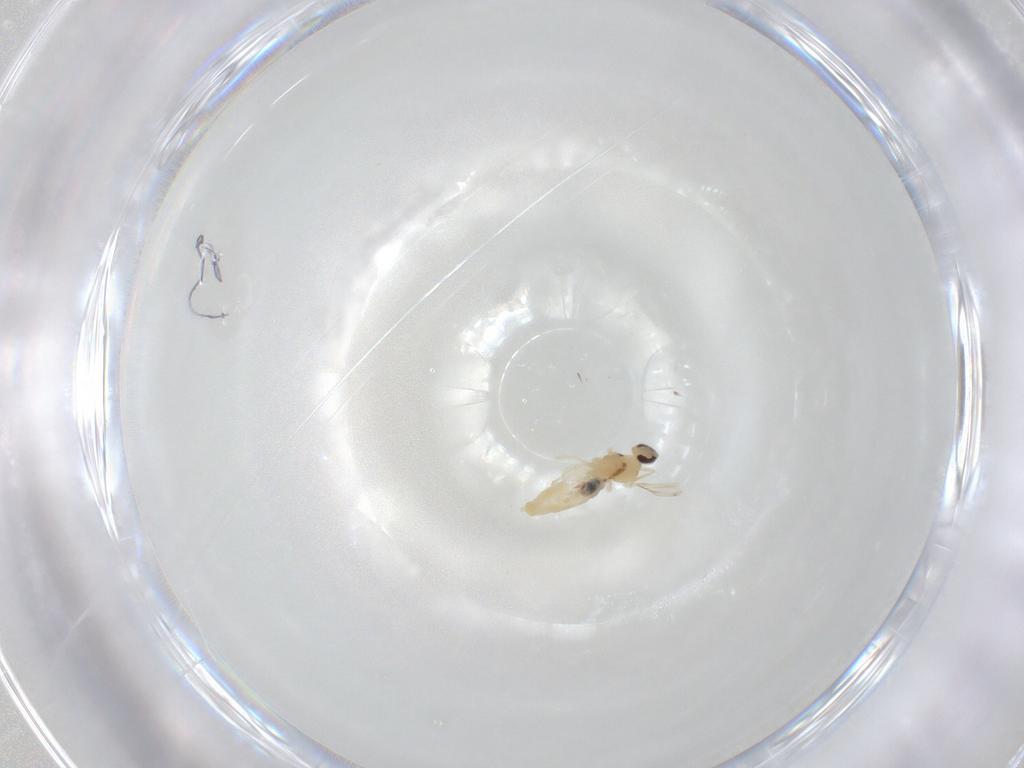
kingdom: Animalia
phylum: Arthropoda
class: Insecta
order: Diptera
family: Cecidomyiidae
